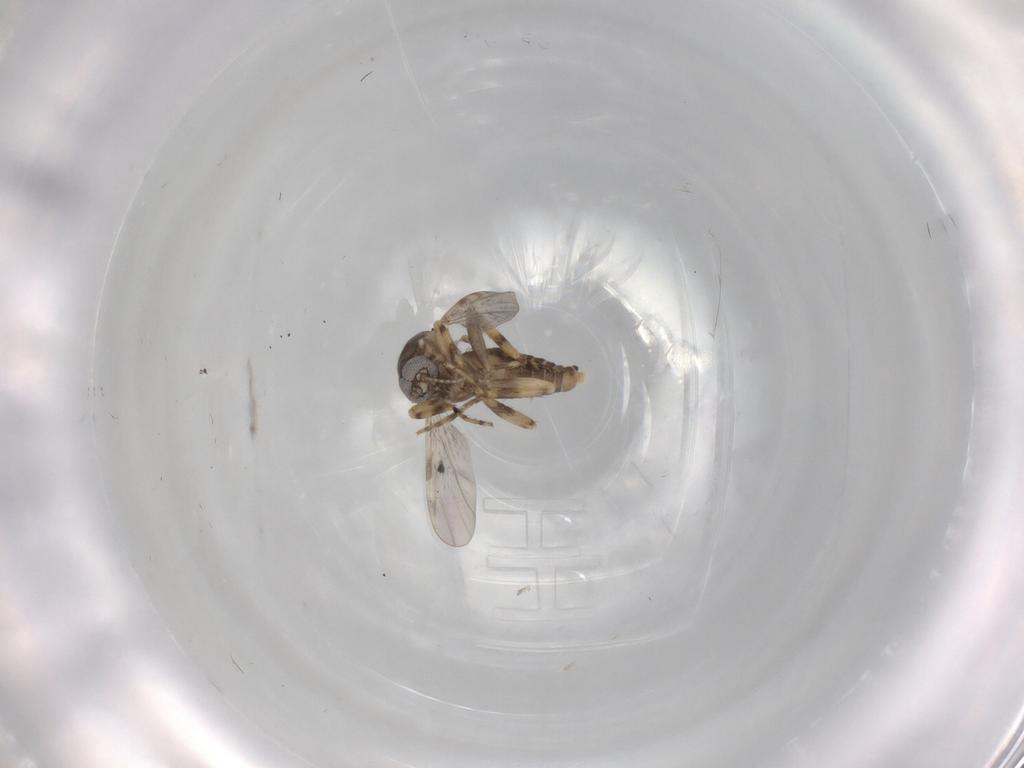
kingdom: Animalia
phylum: Arthropoda
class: Insecta
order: Diptera
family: Ceratopogonidae
